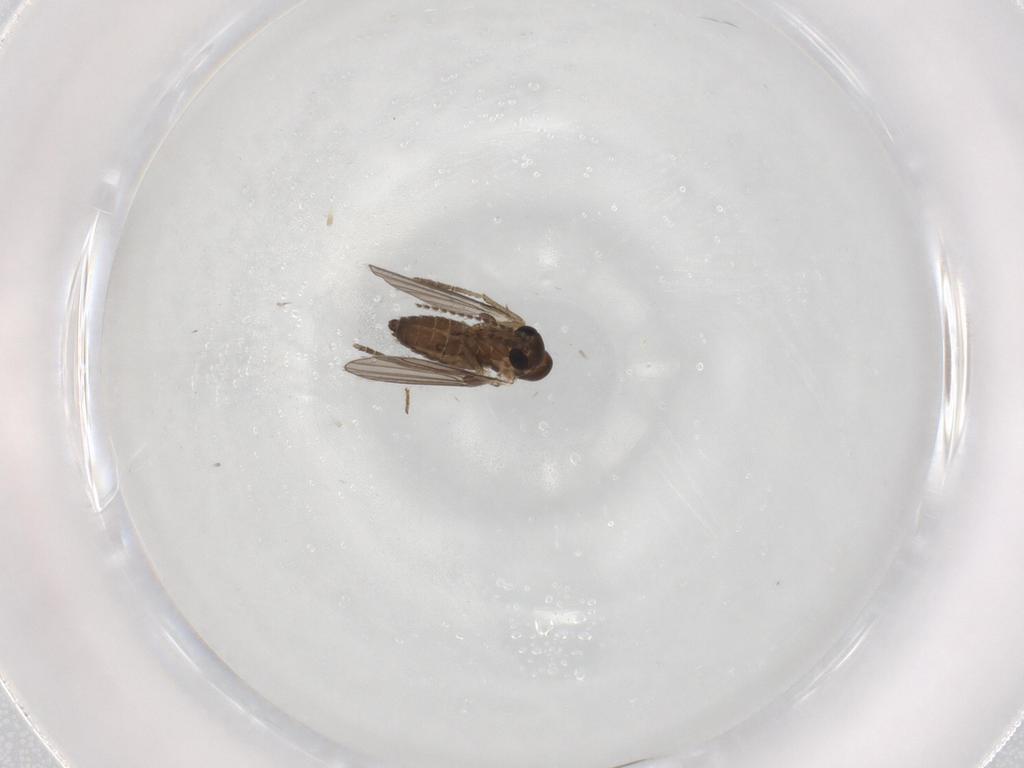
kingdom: Animalia
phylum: Arthropoda
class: Insecta
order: Diptera
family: Sphaeroceridae
